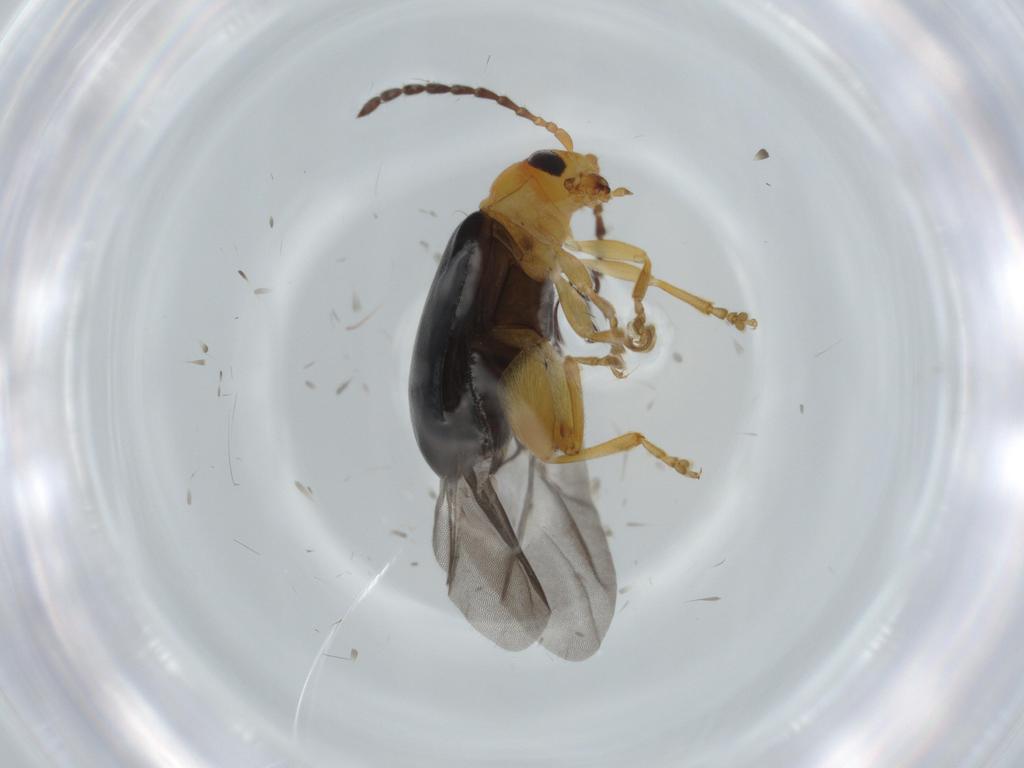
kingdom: Animalia
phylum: Arthropoda
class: Insecta
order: Coleoptera
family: Chrysomelidae
